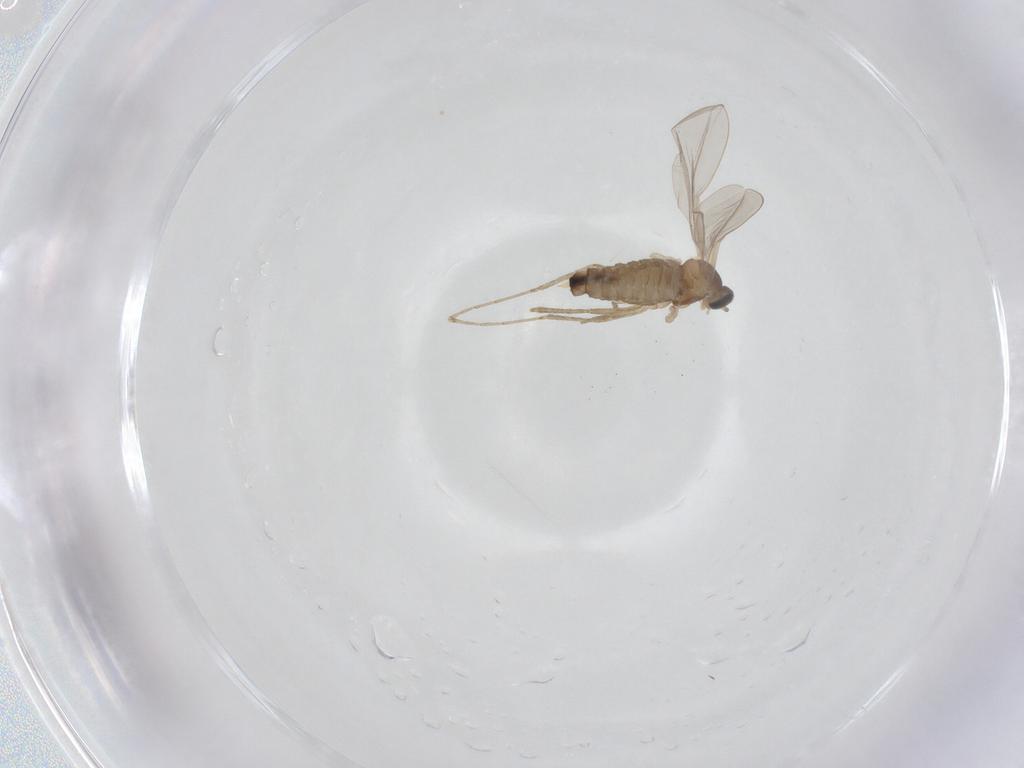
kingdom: Animalia
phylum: Arthropoda
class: Insecta
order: Diptera
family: Cecidomyiidae
